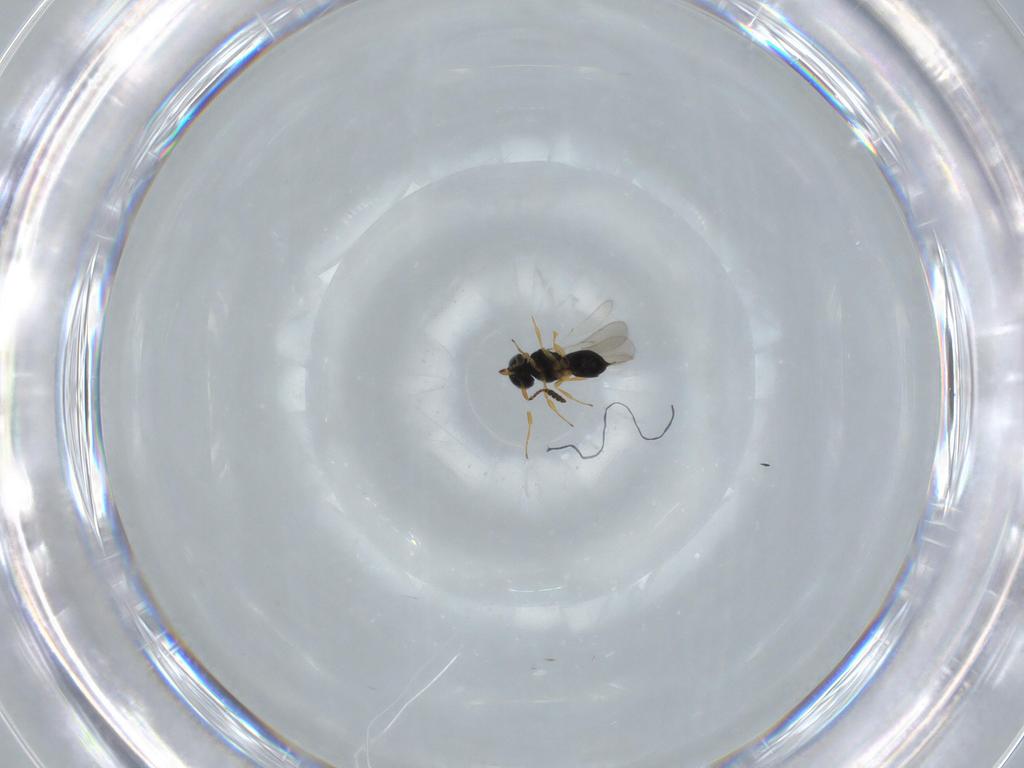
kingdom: Animalia
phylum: Arthropoda
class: Insecta
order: Hymenoptera
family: Scelionidae
